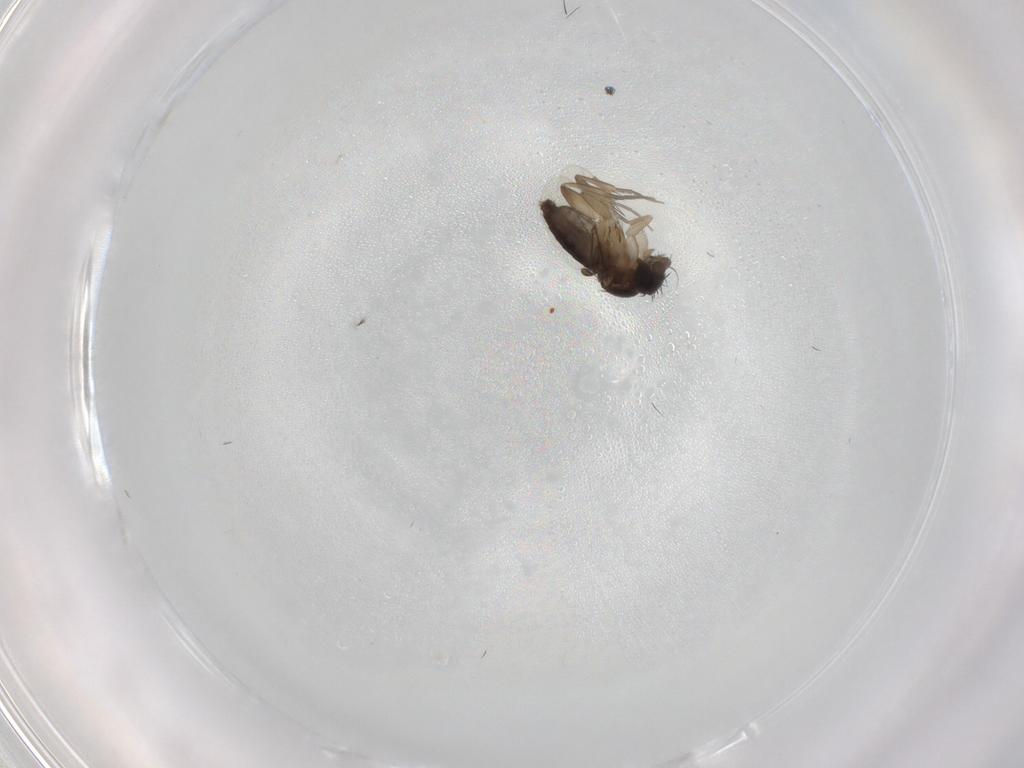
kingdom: Animalia
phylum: Arthropoda
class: Insecta
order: Diptera
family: Phoridae
